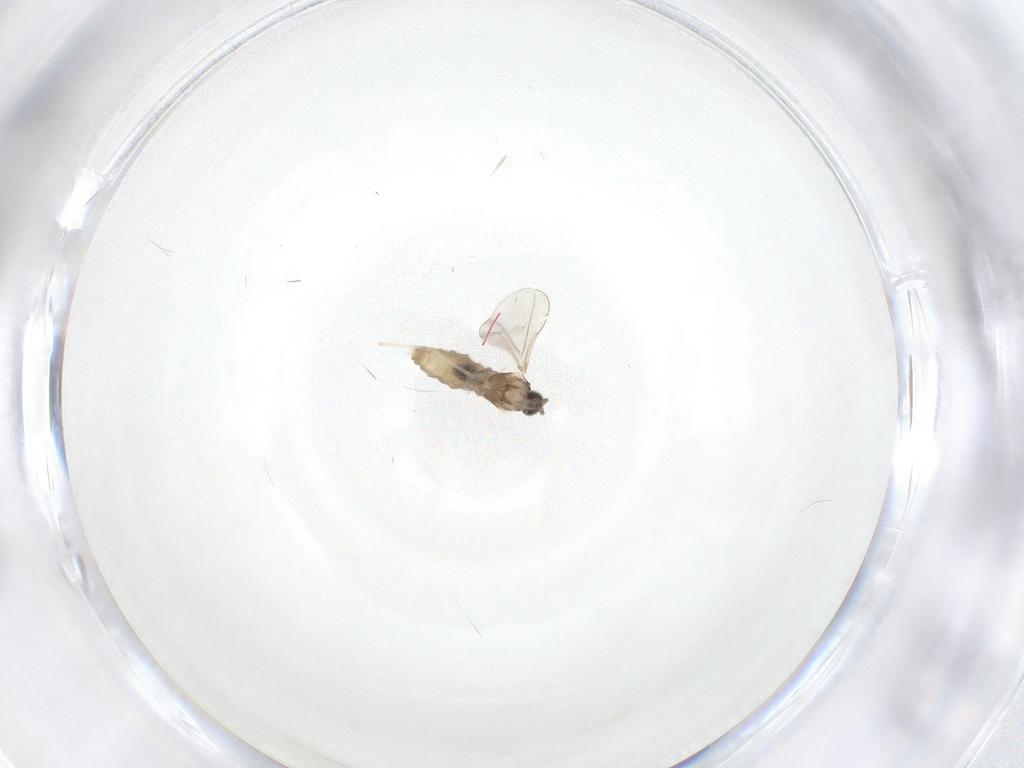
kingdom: Animalia
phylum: Arthropoda
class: Insecta
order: Diptera
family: Cecidomyiidae
